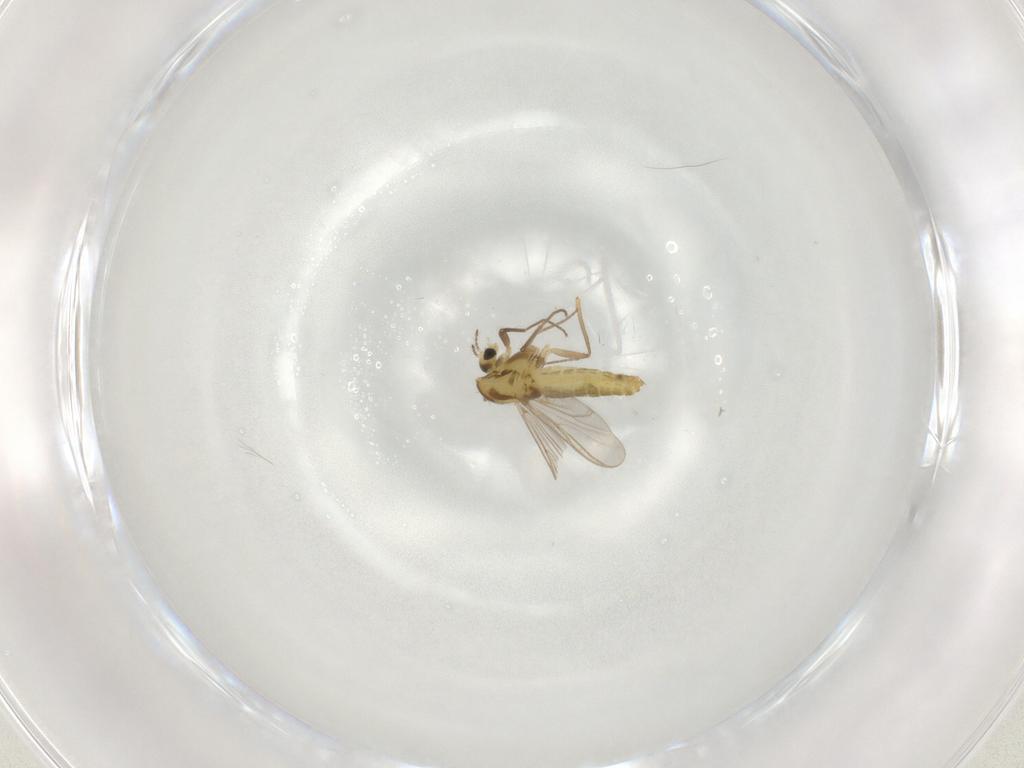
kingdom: Animalia
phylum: Arthropoda
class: Insecta
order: Diptera
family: Chironomidae
